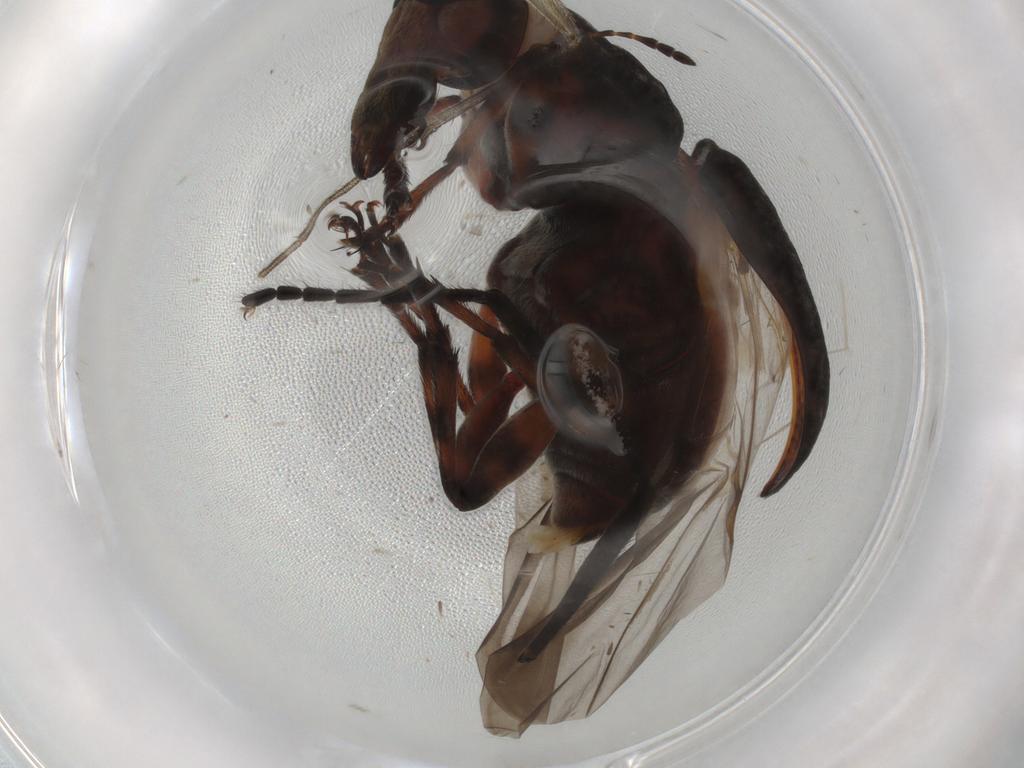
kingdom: Animalia
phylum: Arthropoda
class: Insecta
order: Coleoptera
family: Anthribidae
